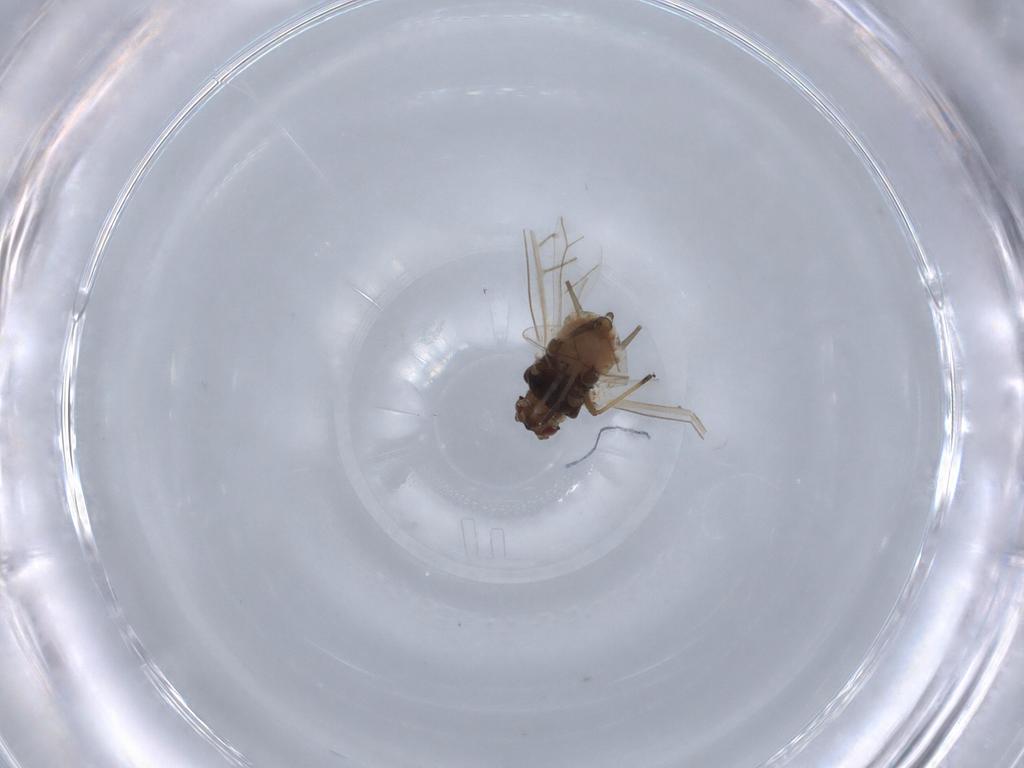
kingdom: Animalia
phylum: Arthropoda
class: Insecta
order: Hemiptera
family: Aphididae
